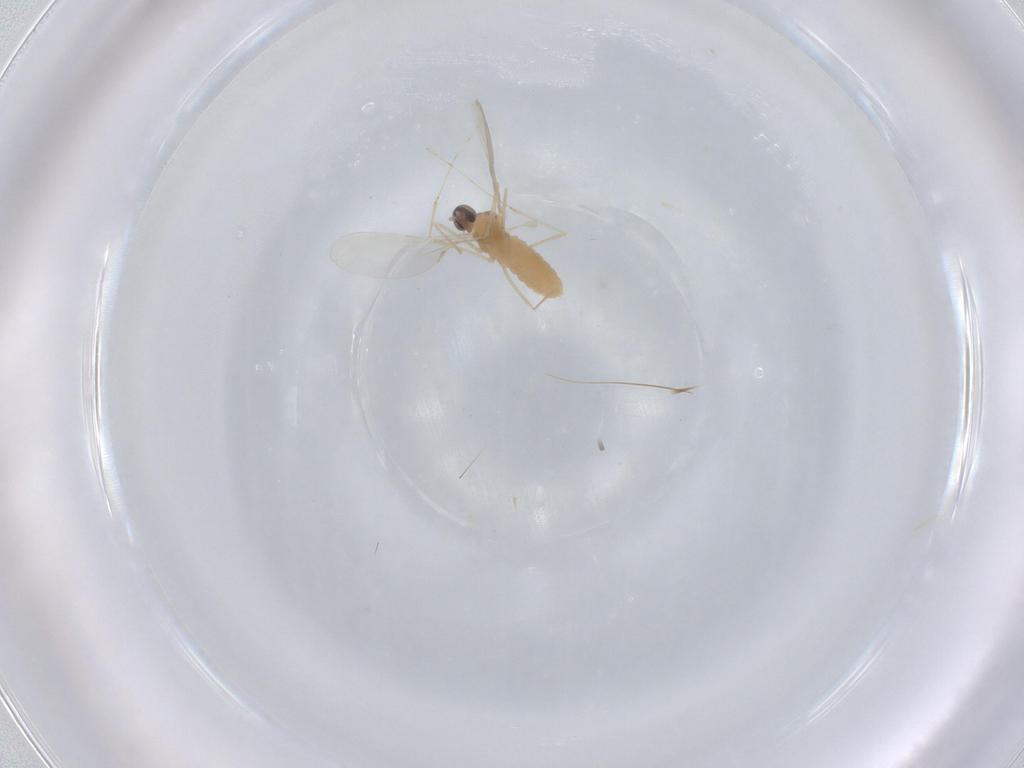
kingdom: Animalia
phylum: Arthropoda
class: Insecta
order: Diptera
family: Cecidomyiidae
